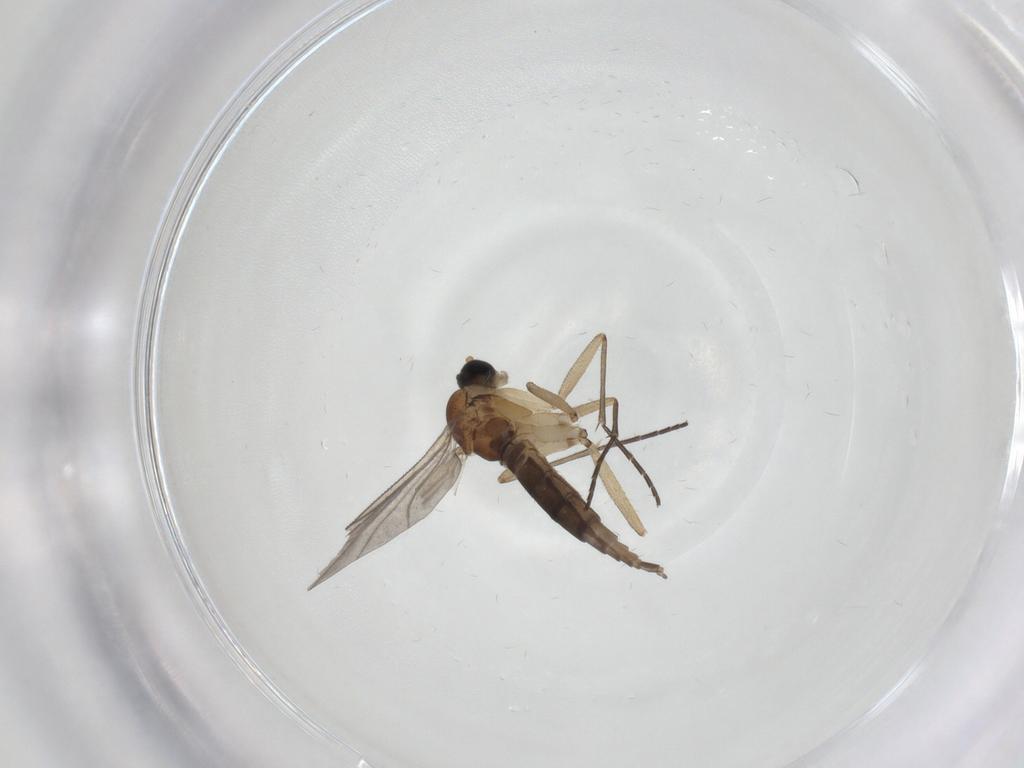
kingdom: Animalia
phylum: Arthropoda
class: Insecta
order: Diptera
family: Sciaridae
